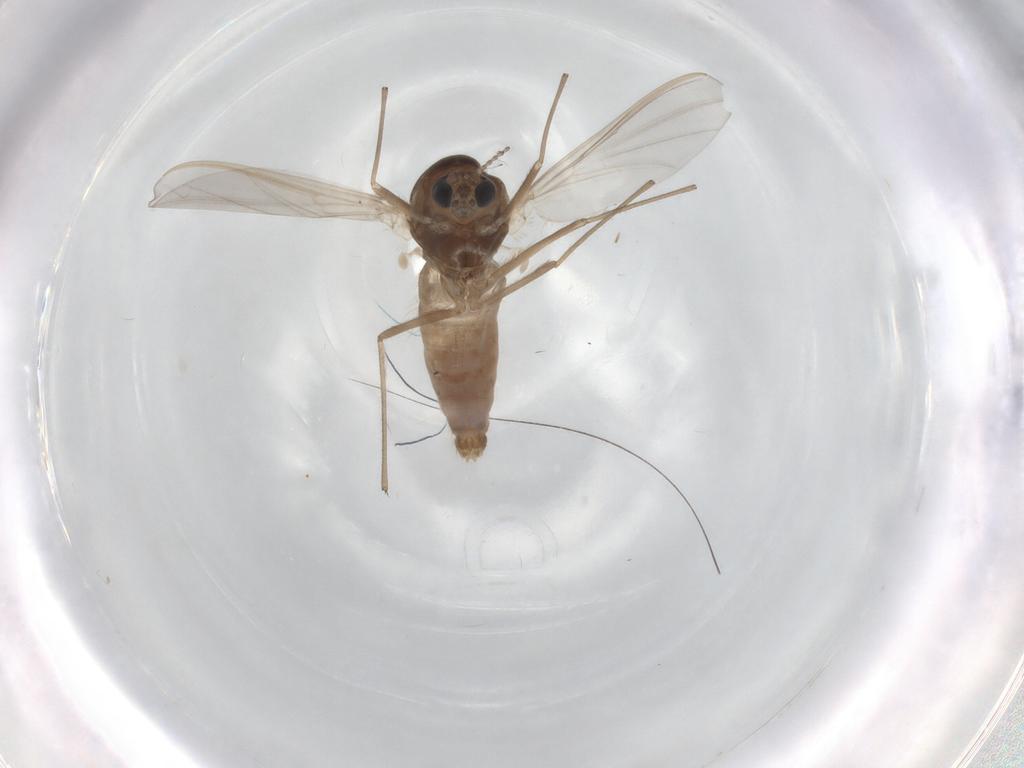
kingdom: Animalia
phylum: Arthropoda
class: Insecta
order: Diptera
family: Chironomidae
